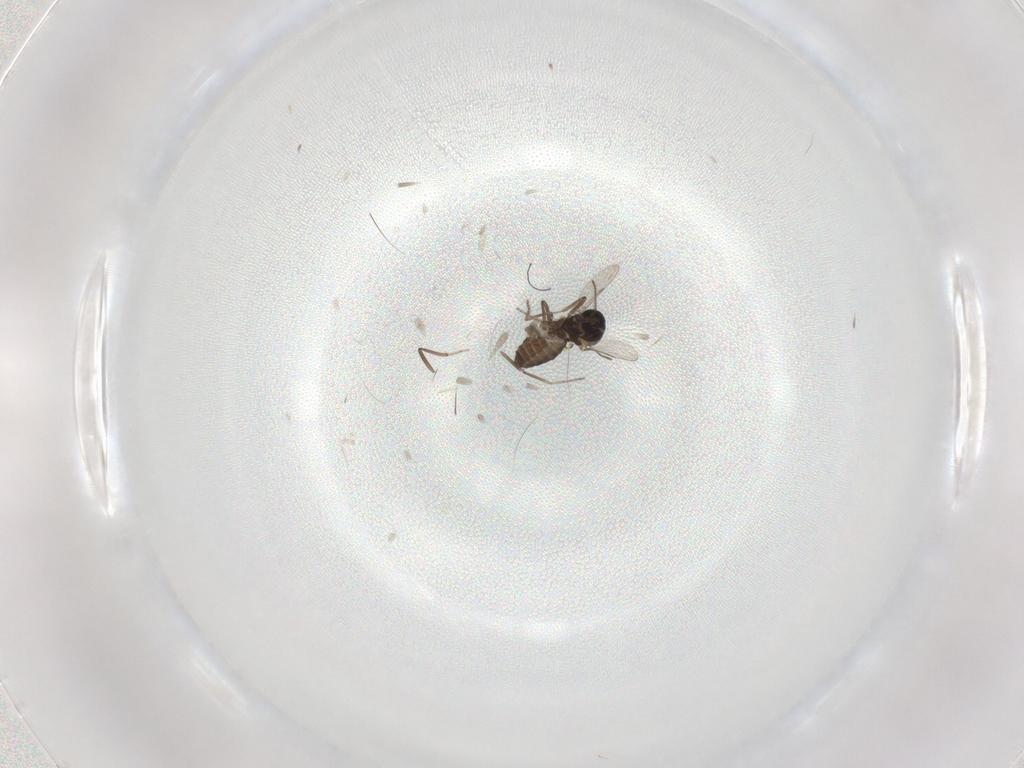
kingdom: Animalia
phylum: Arthropoda
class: Insecta
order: Diptera
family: Ceratopogonidae
